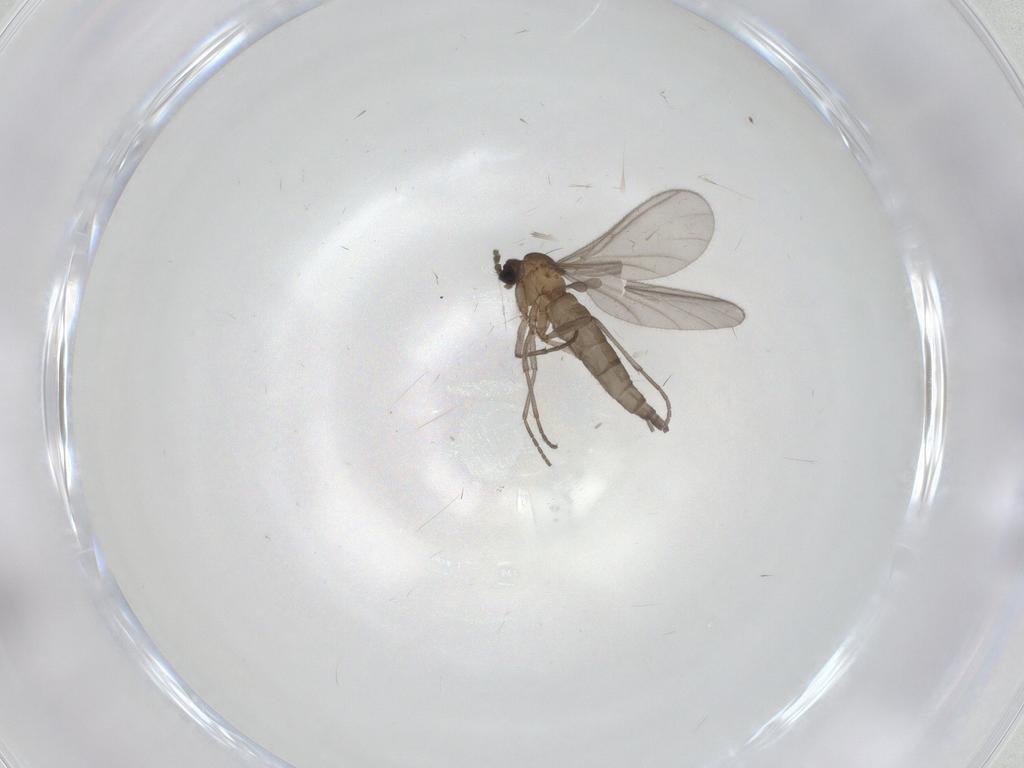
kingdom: Animalia
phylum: Arthropoda
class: Insecta
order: Diptera
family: Sciaridae
